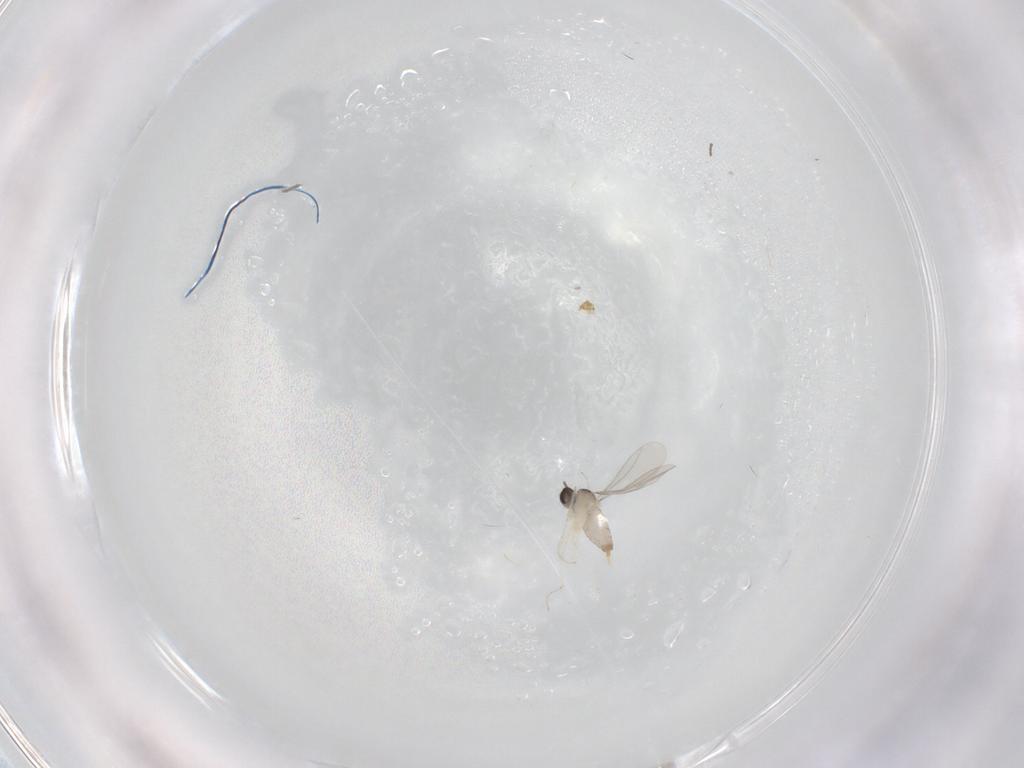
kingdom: Animalia
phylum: Arthropoda
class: Insecta
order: Diptera
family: Cecidomyiidae
